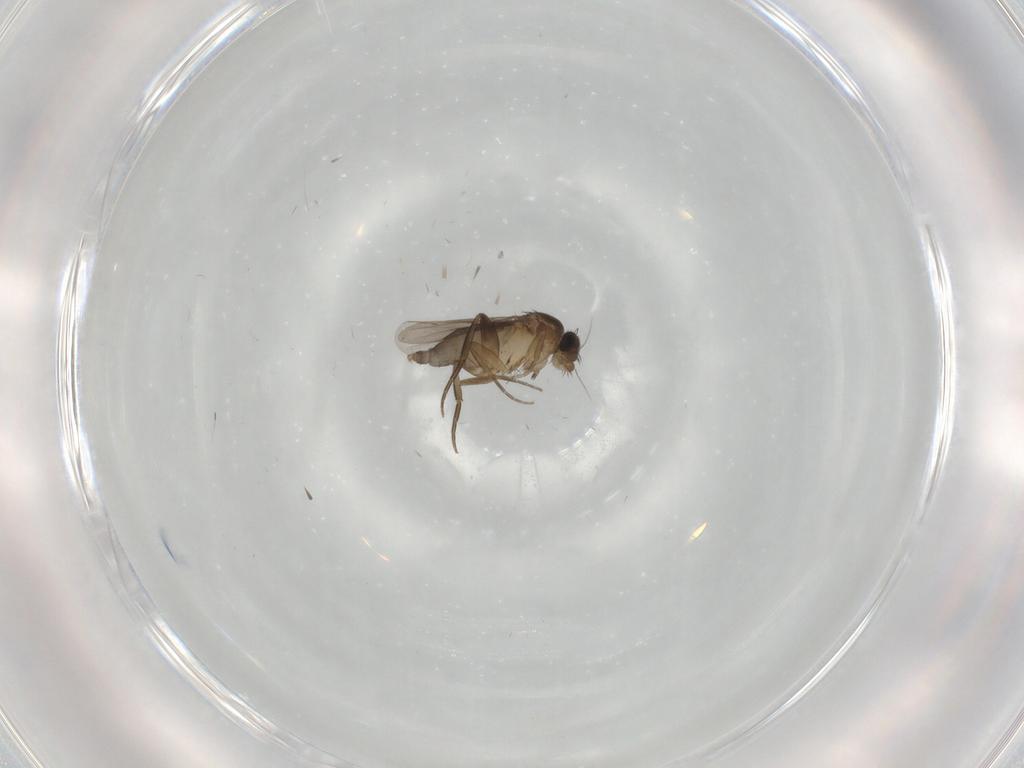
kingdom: Animalia
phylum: Arthropoda
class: Insecta
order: Diptera
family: Phoridae
